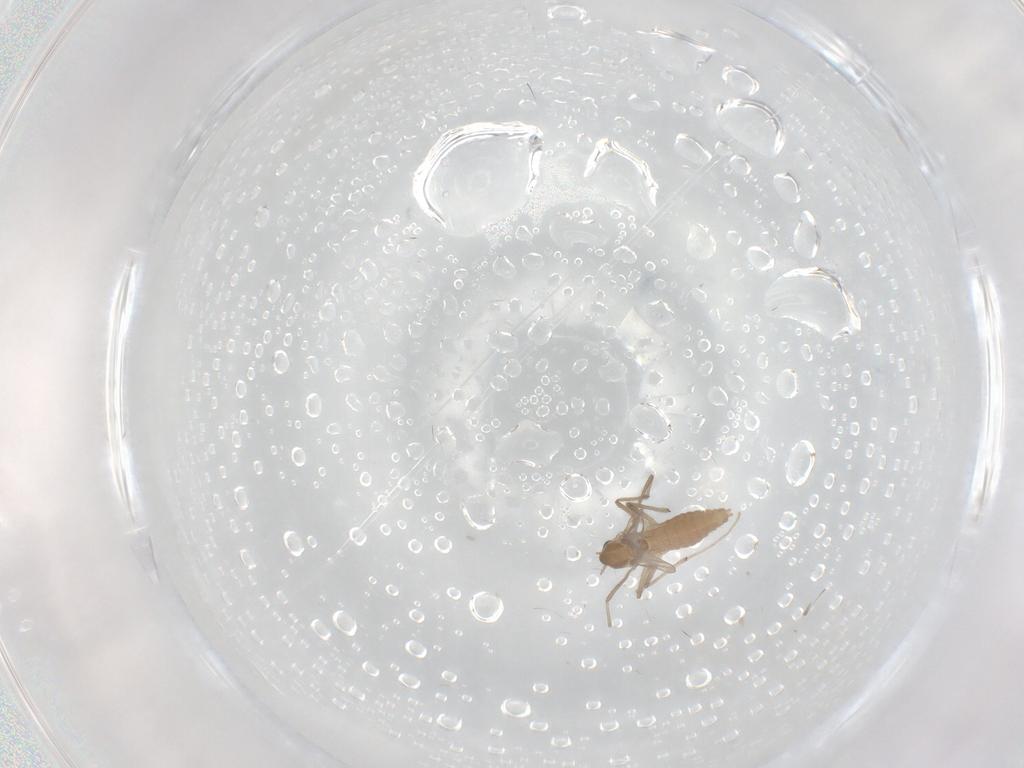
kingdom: Animalia
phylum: Arthropoda
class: Insecta
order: Diptera
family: Chironomidae
